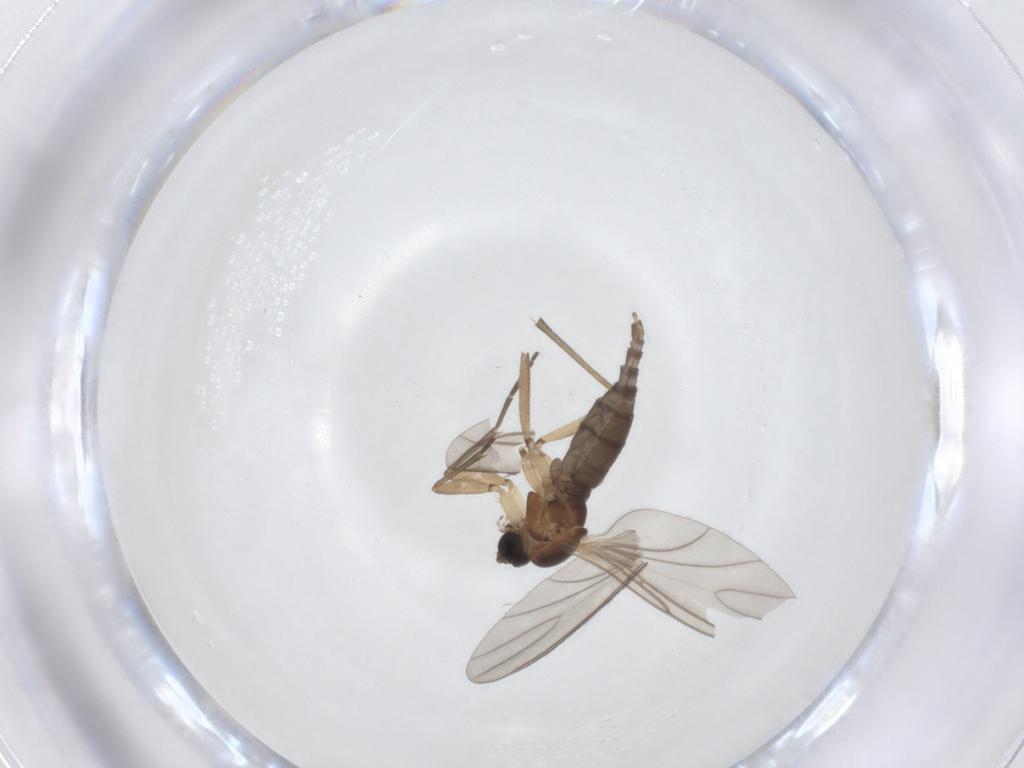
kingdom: Animalia
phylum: Arthropoda
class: Insecta
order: Diptera
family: Sciaridae
